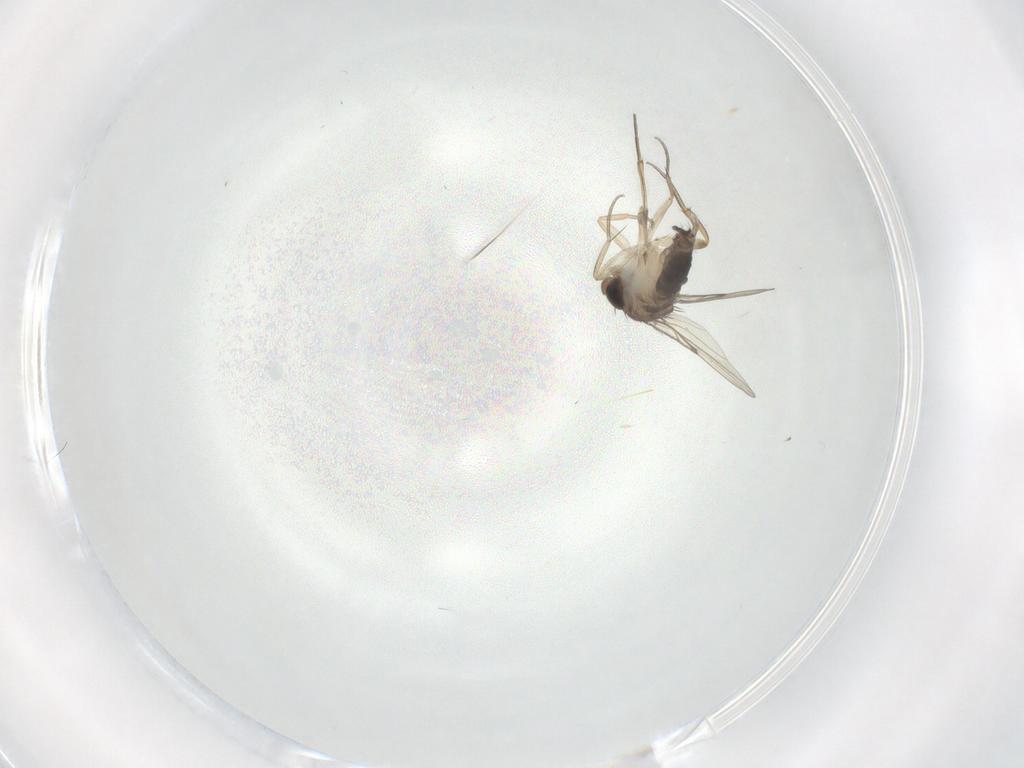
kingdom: Animalia
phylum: Arthropoda
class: Insecta
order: Diptera
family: Phoridae
